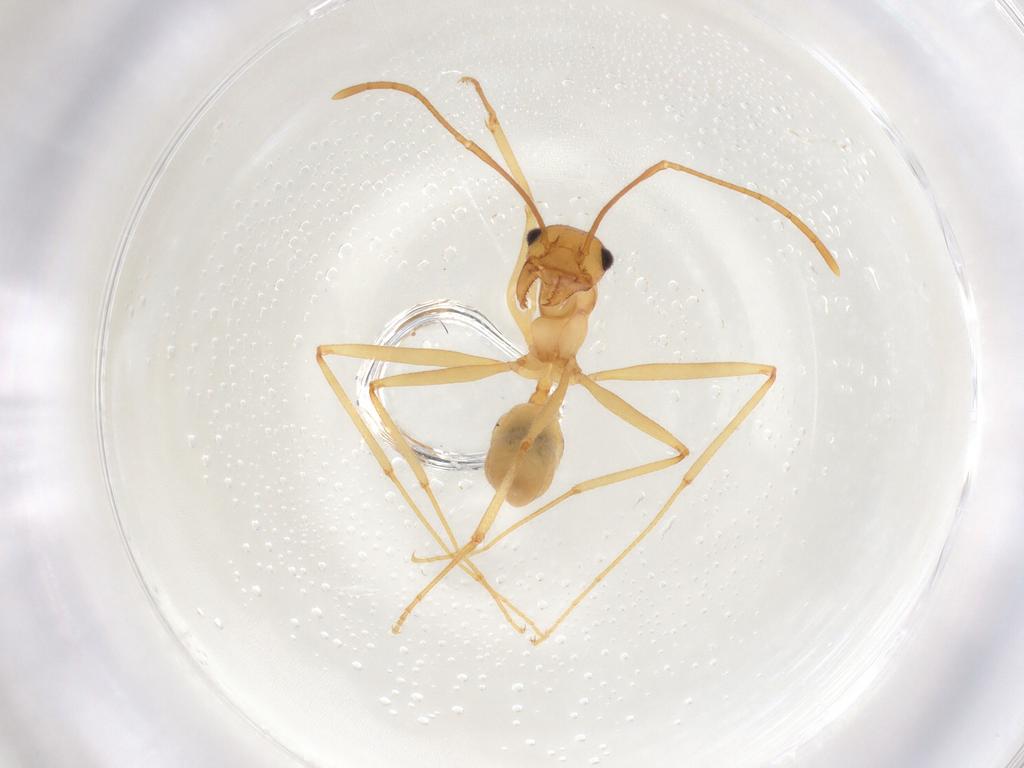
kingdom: Animalia
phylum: Arthropoda
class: Insecta
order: Hymenoptera
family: Formicidae
